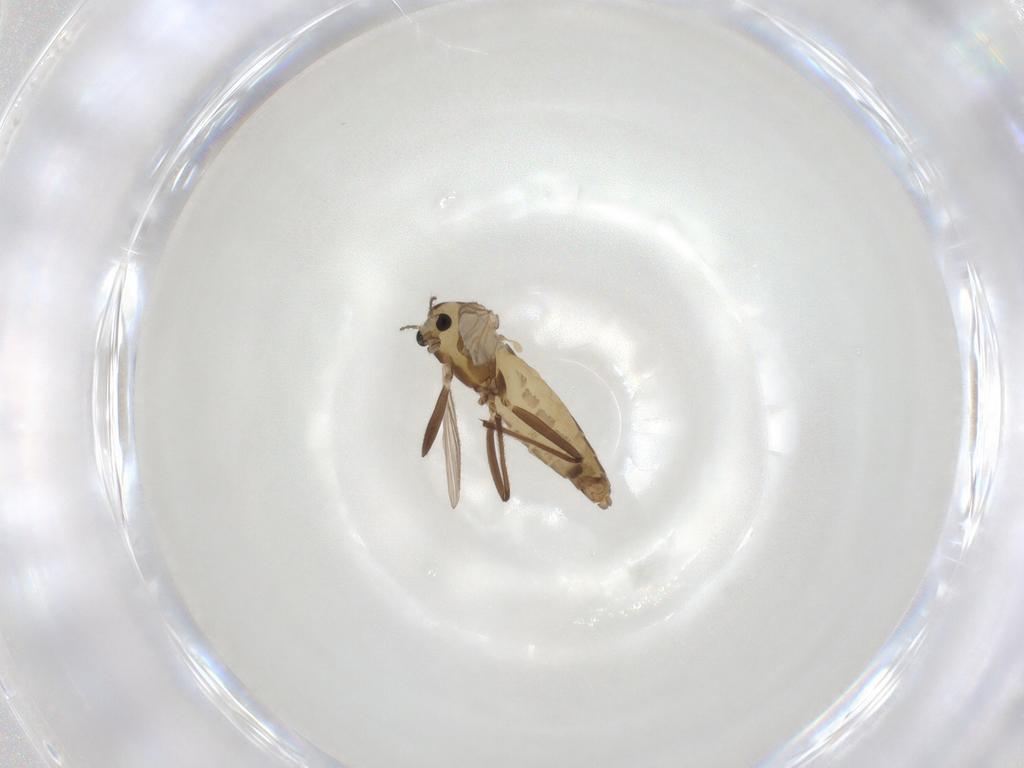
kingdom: Animalia
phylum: Arthropoda
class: Insecta
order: Diptera
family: Chironomidae
